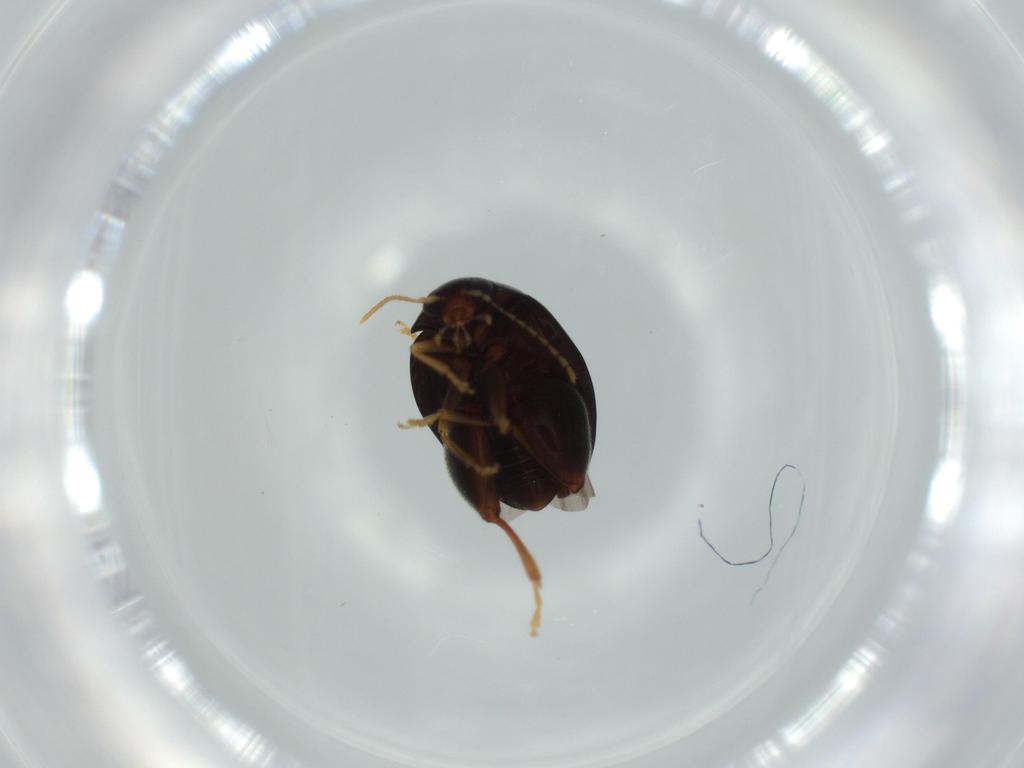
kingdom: Animalia
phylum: Arthropoda
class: Insecta
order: Coleoptera
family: Chrysomelidae
